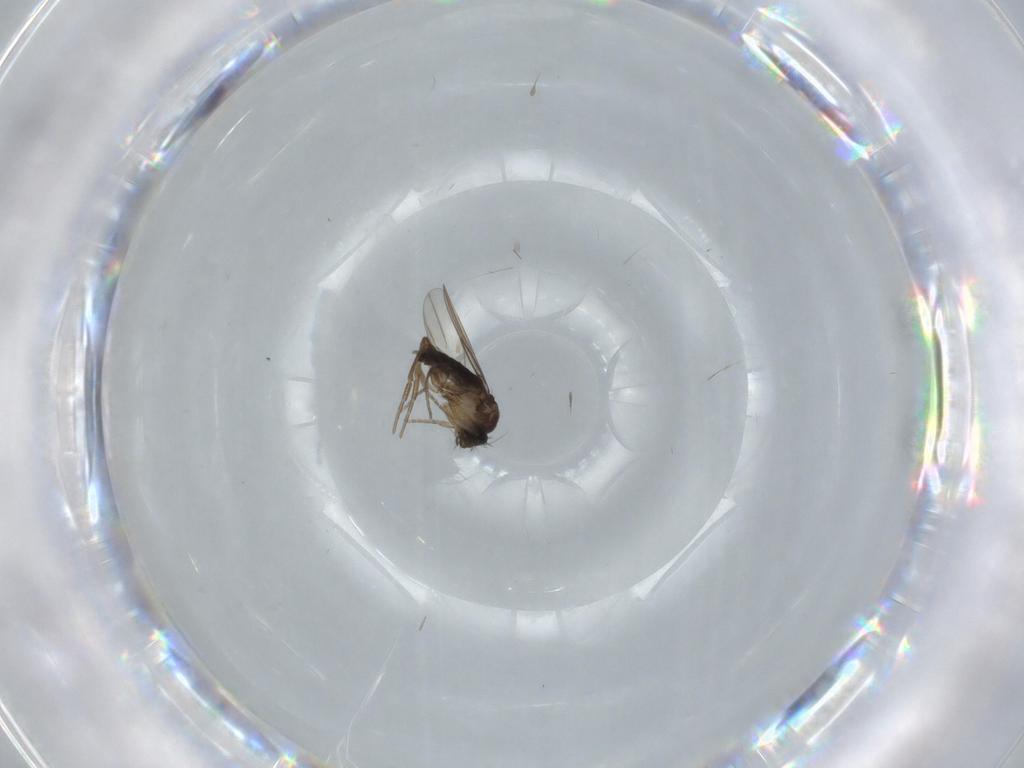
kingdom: Animalia
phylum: Arthropoda
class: Insecta
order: Diptera
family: Phoridae
